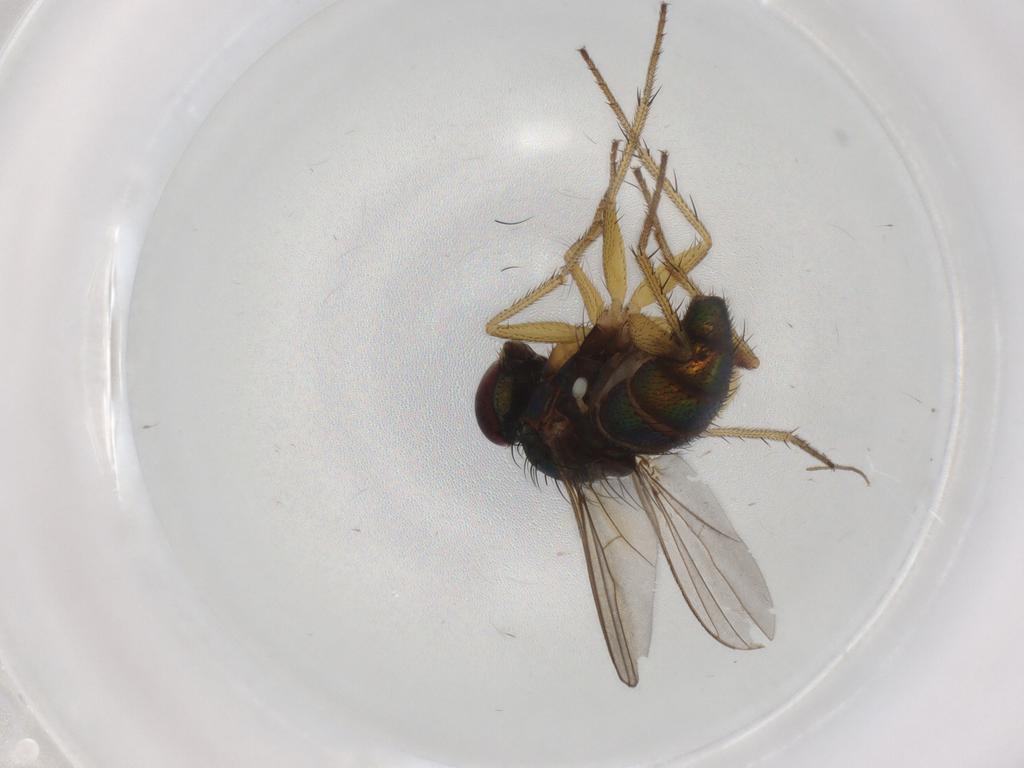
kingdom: Animalia
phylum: Arthropoda
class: Insecta
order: Diptera
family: Dolichopodidae
